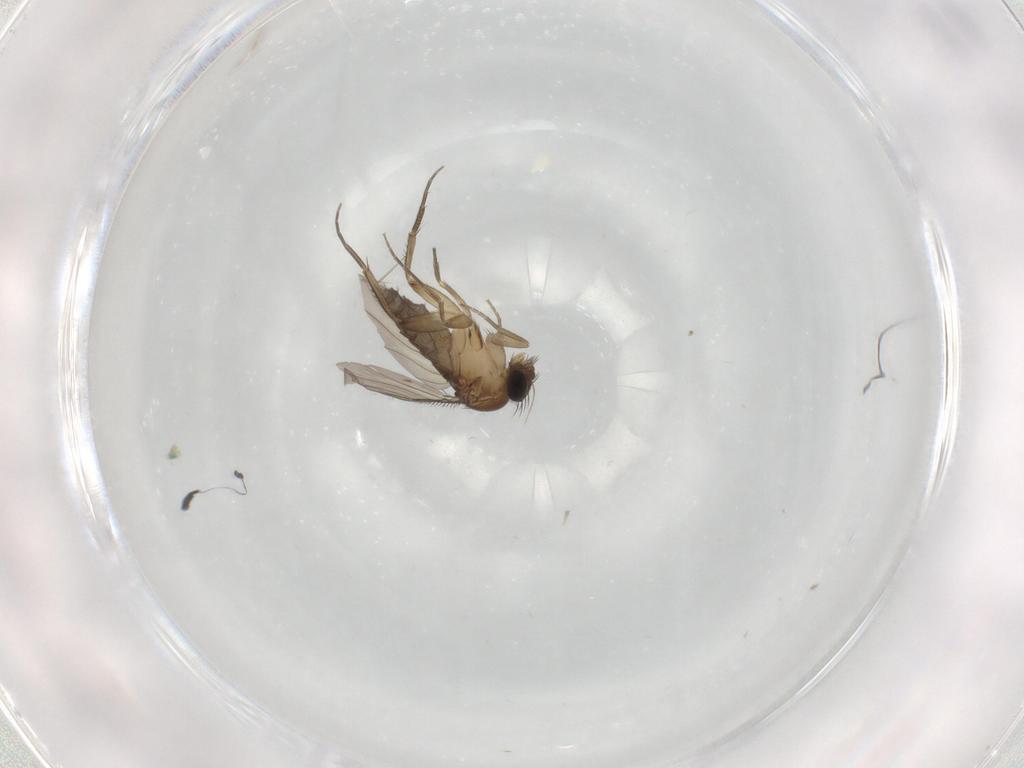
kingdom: Animalia
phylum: Arthropoda
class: Insecta
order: Diptera
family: Phoridae
